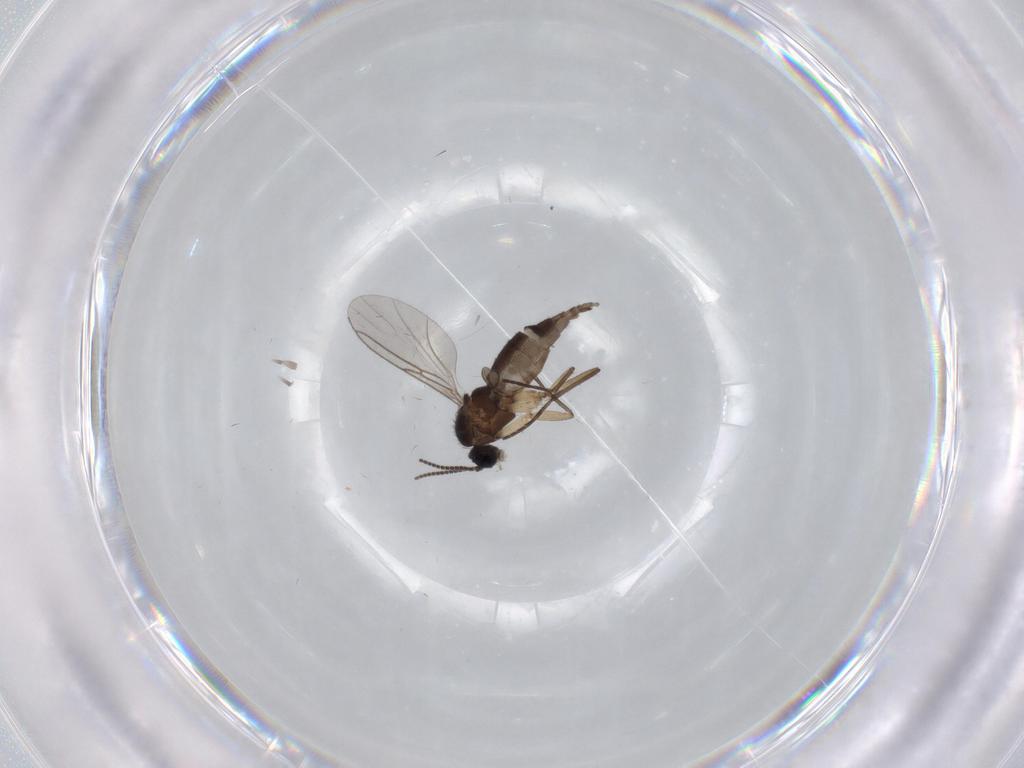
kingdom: Animalia
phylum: Arthropoda
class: Insecta
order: Diptera
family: Sciaridae
